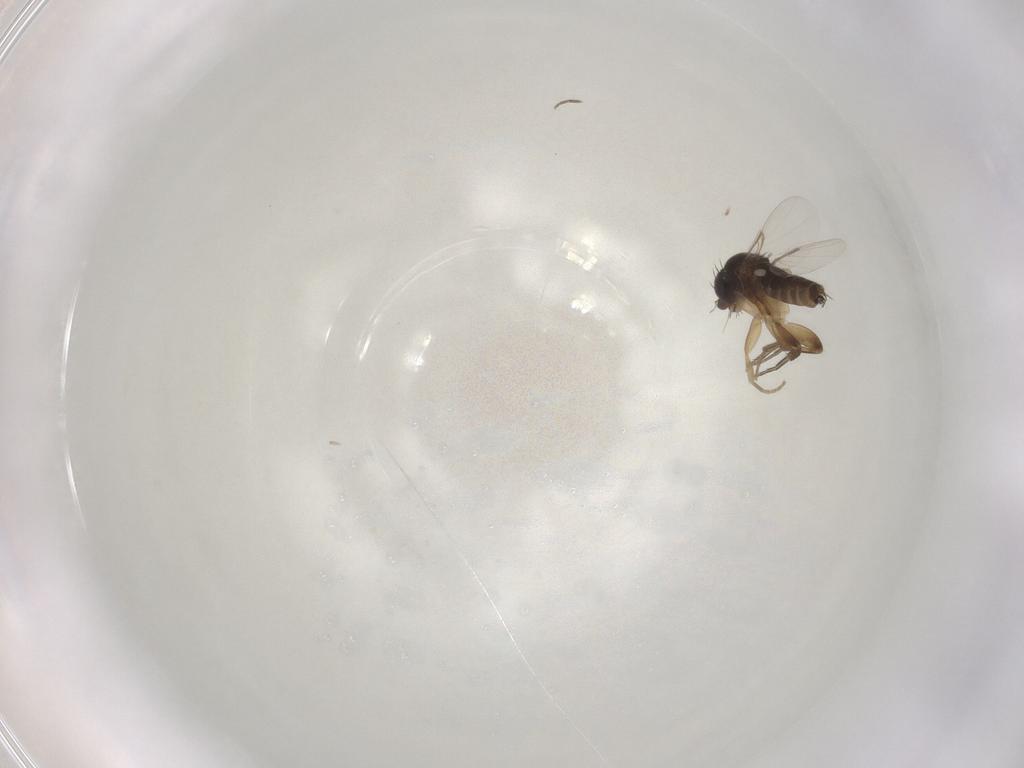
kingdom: Animalia
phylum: Arthropoda
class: Insecta
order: Diptera
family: Phoridae
